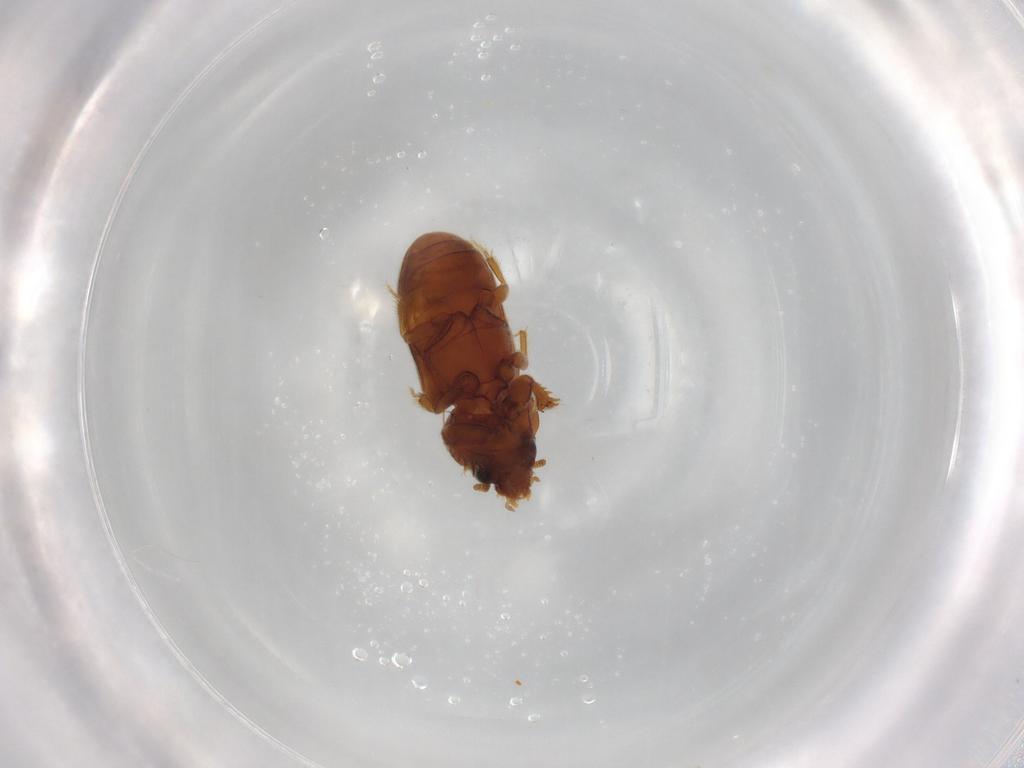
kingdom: Animalia
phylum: Arthropoda
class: Insecta
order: Coleoptera
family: Heteroceridae
